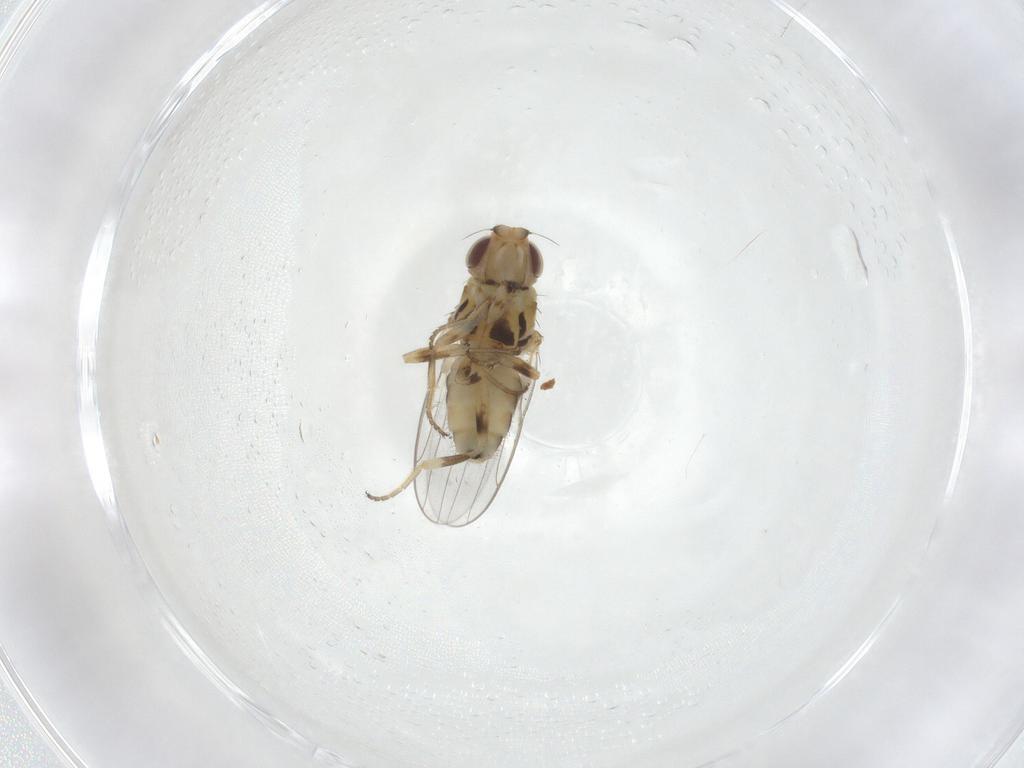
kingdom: Animalia
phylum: Arthropoda
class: Insecta
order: Diptera
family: Chloropidae
